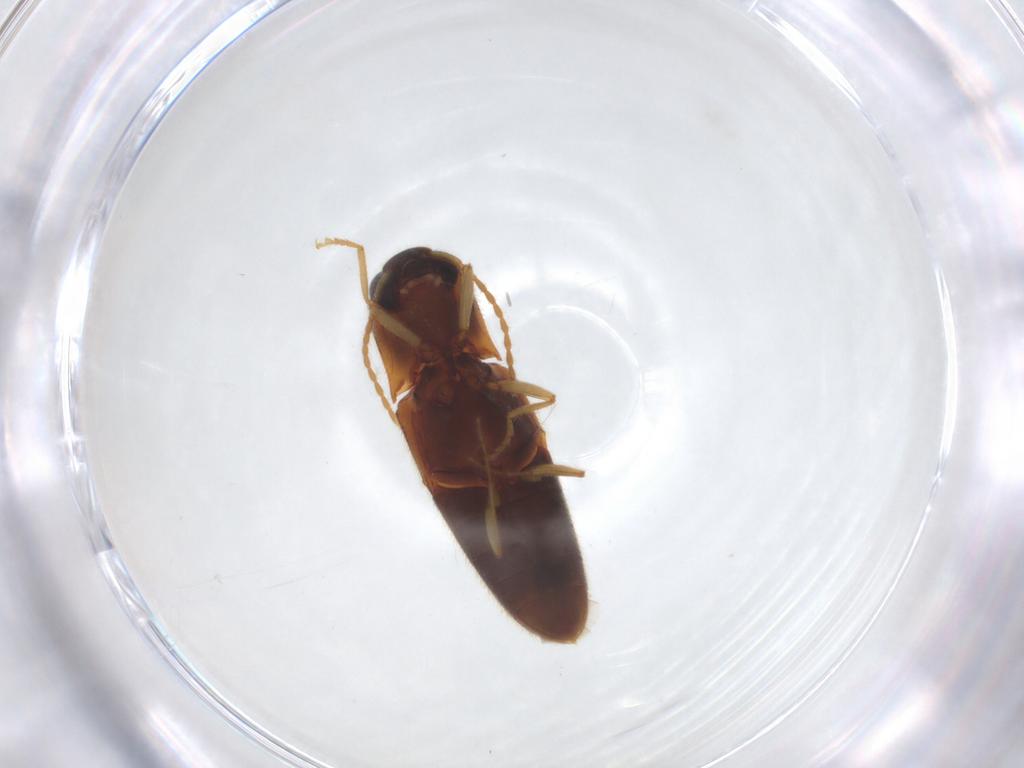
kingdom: Animalia
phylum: Arthropoda
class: Insecta
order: Coleoptera
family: Elateridae
